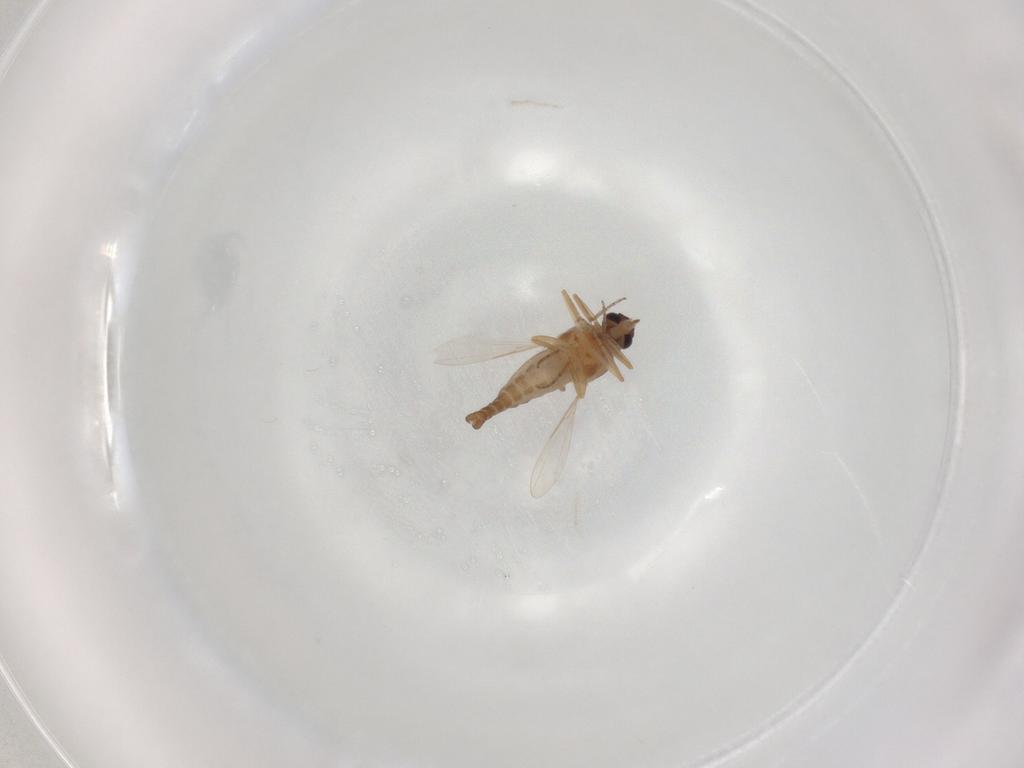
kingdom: Animalia
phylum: Arthropoda
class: Insecta
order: Diptera
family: Ceratopogonidae
